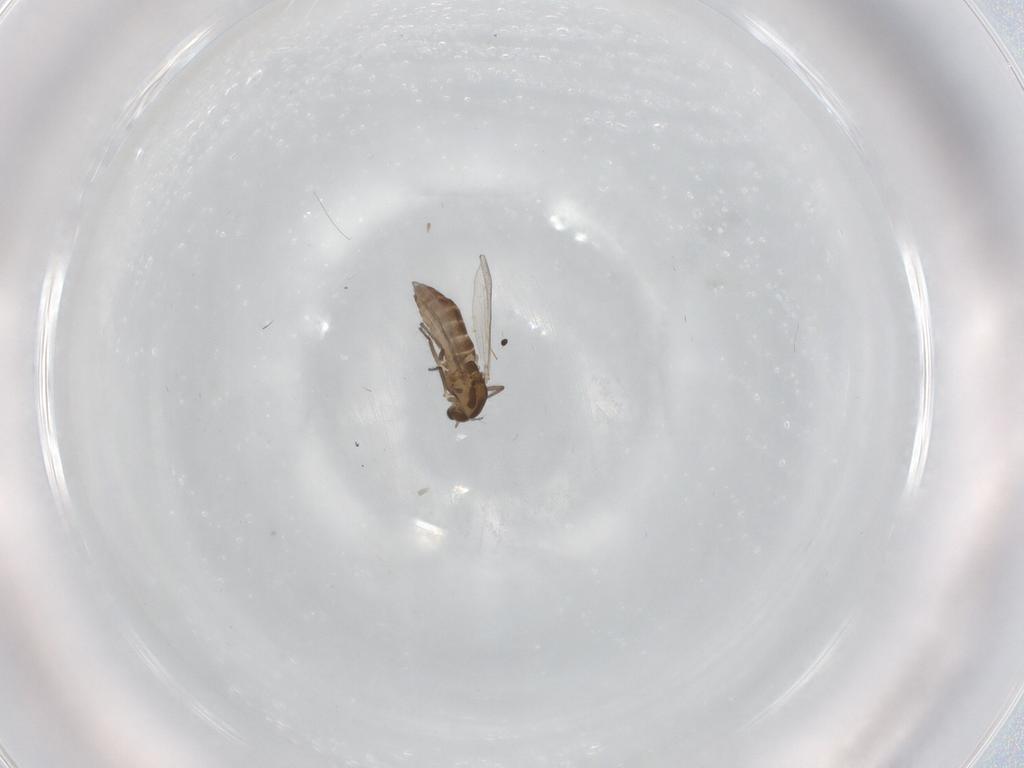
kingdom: Animalia
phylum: Arthropoda
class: Insecta
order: Diptera
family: Chironomidae
